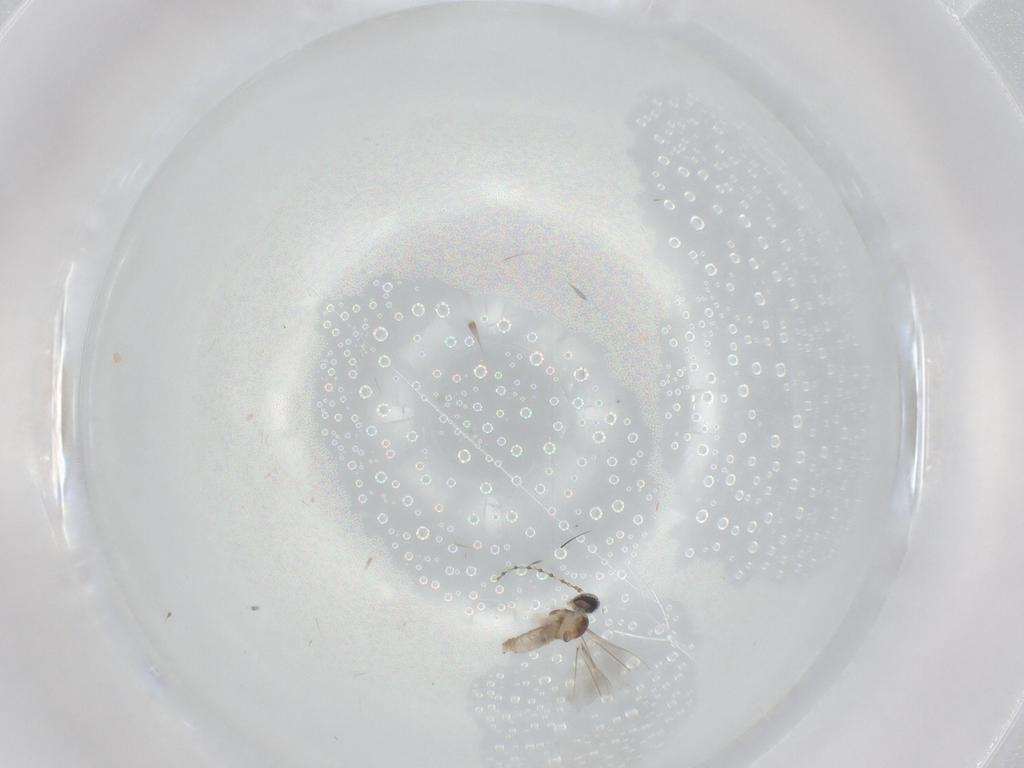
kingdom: Animalia
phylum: Arthropoda
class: Insecta
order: Diptera
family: Cecidomyiidae
